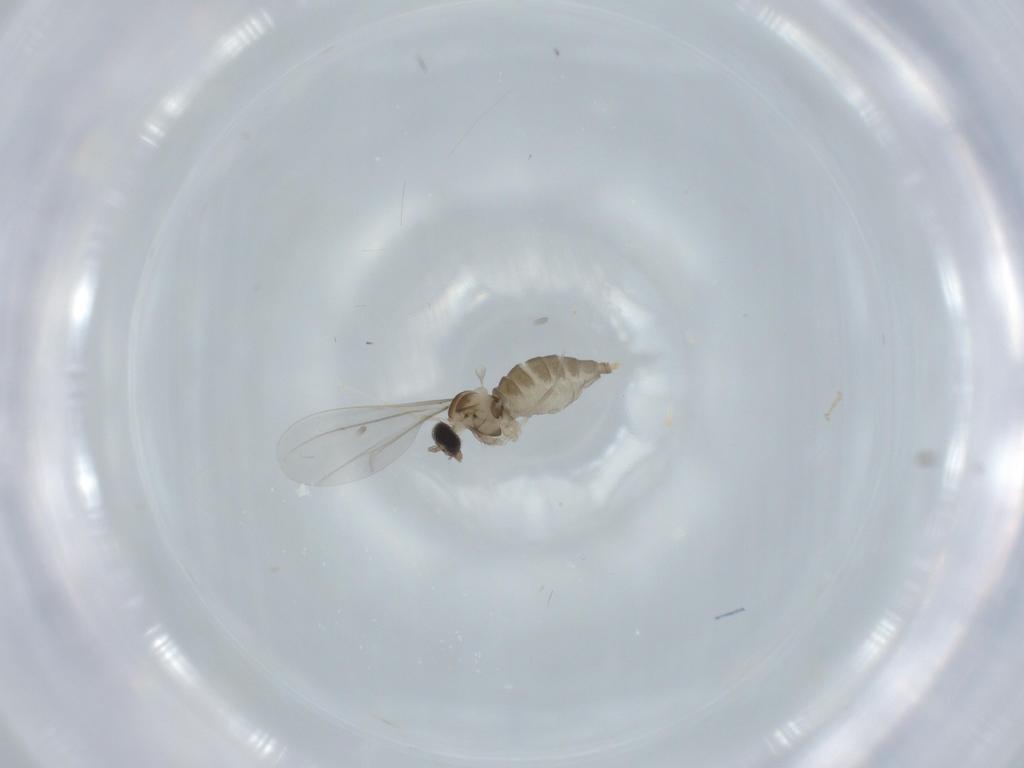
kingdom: Animalia
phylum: Arthropoda
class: Insecta
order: Diptera
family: Cecidomyiidae
